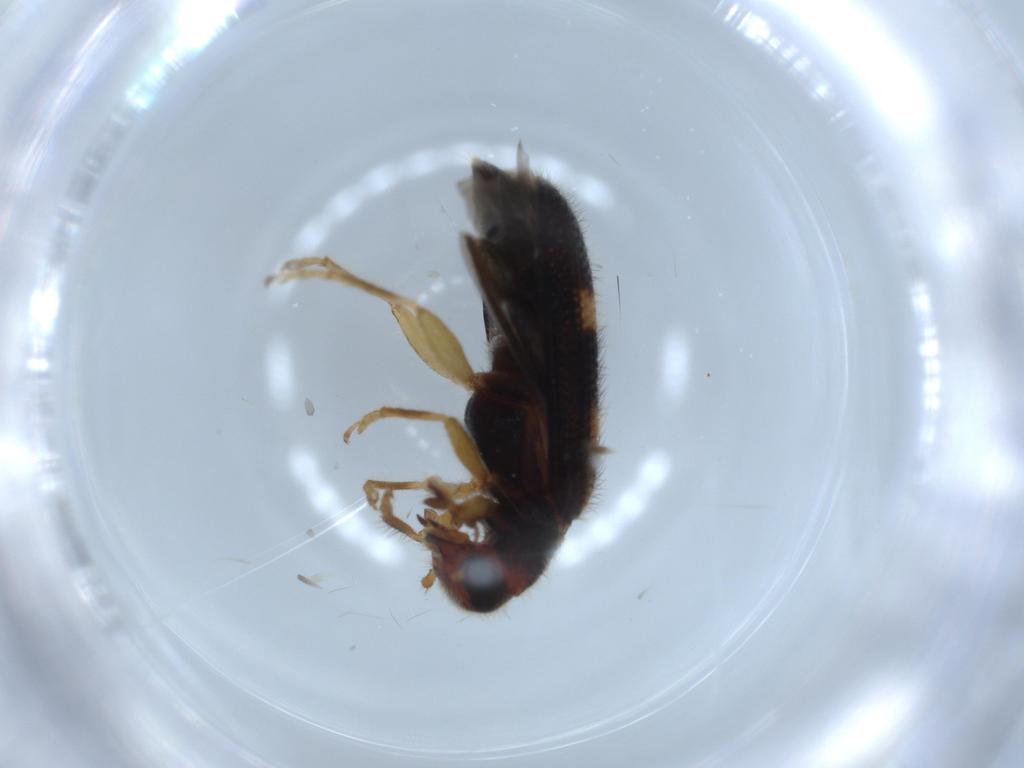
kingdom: Animalia
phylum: Arthropoda
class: Insecta
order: Coleoptera
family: Cleridae
